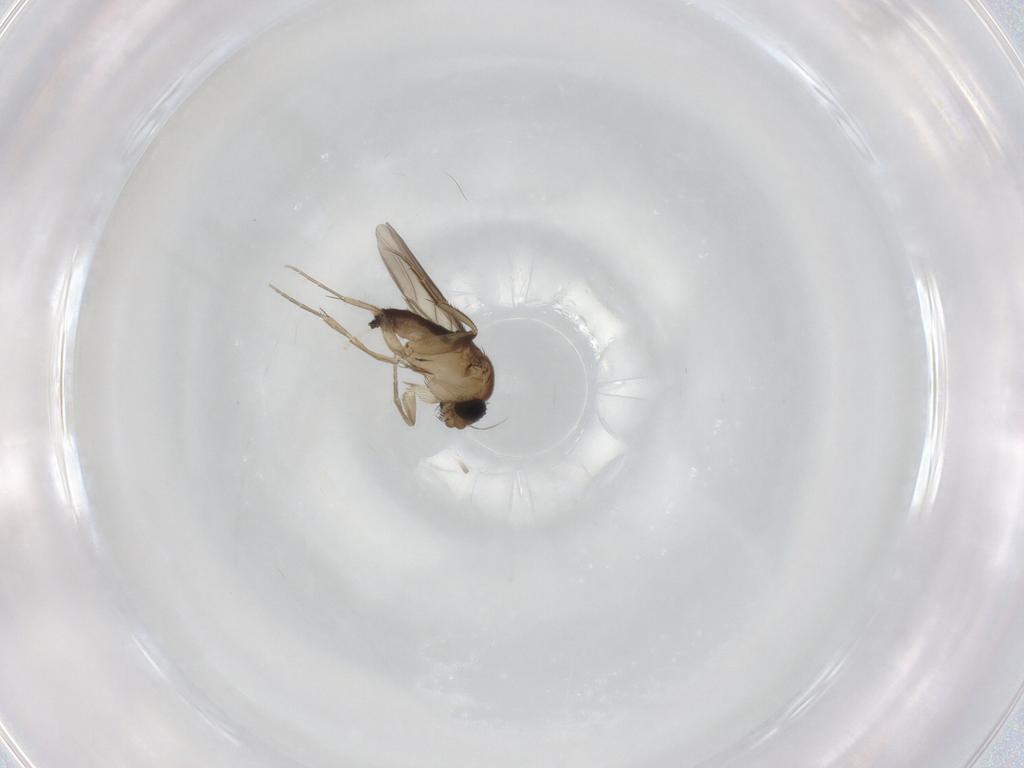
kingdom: Animalia
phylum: Arthropoda
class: Insecta
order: Diptera
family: Phoridae
